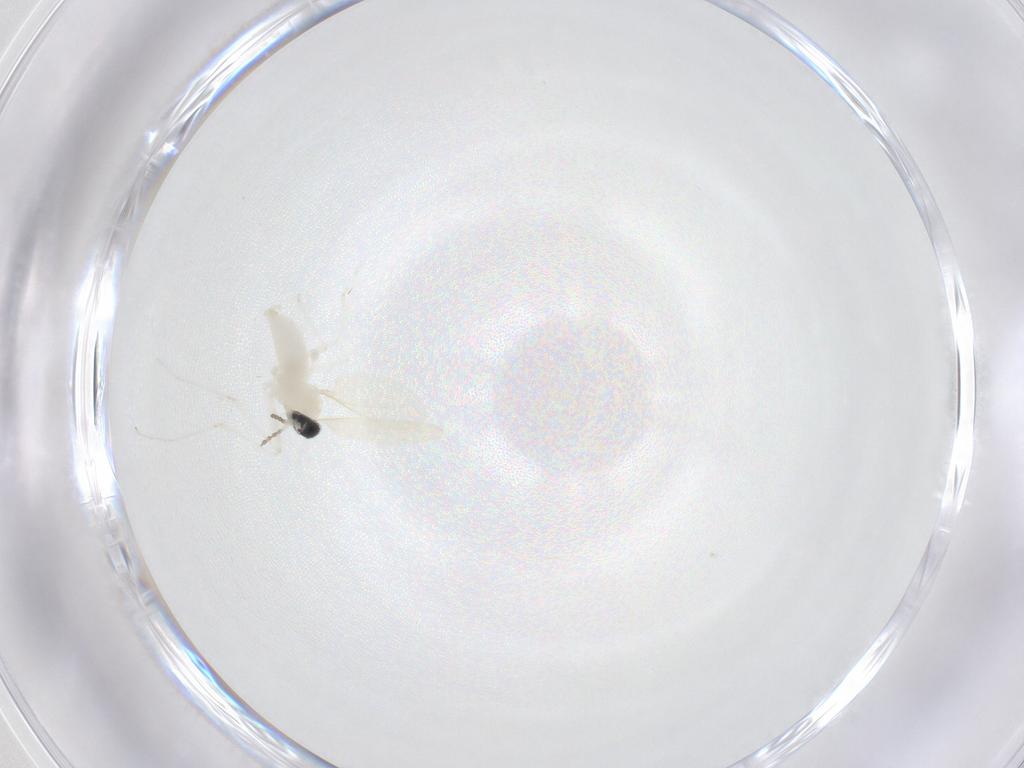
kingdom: Animalia
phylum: Arthropoda
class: Insecta
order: Diptera
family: Cecidomyiidae
